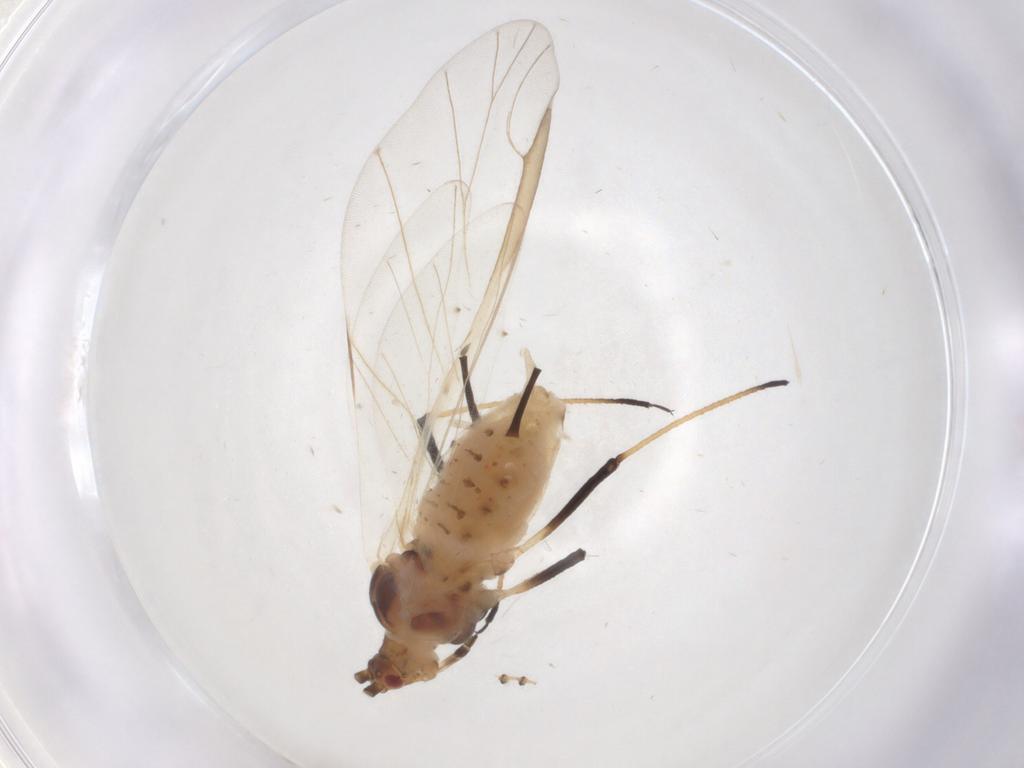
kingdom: Animalia
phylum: Arthropoda
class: Insecta
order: Hemiptera
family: Aphididae
